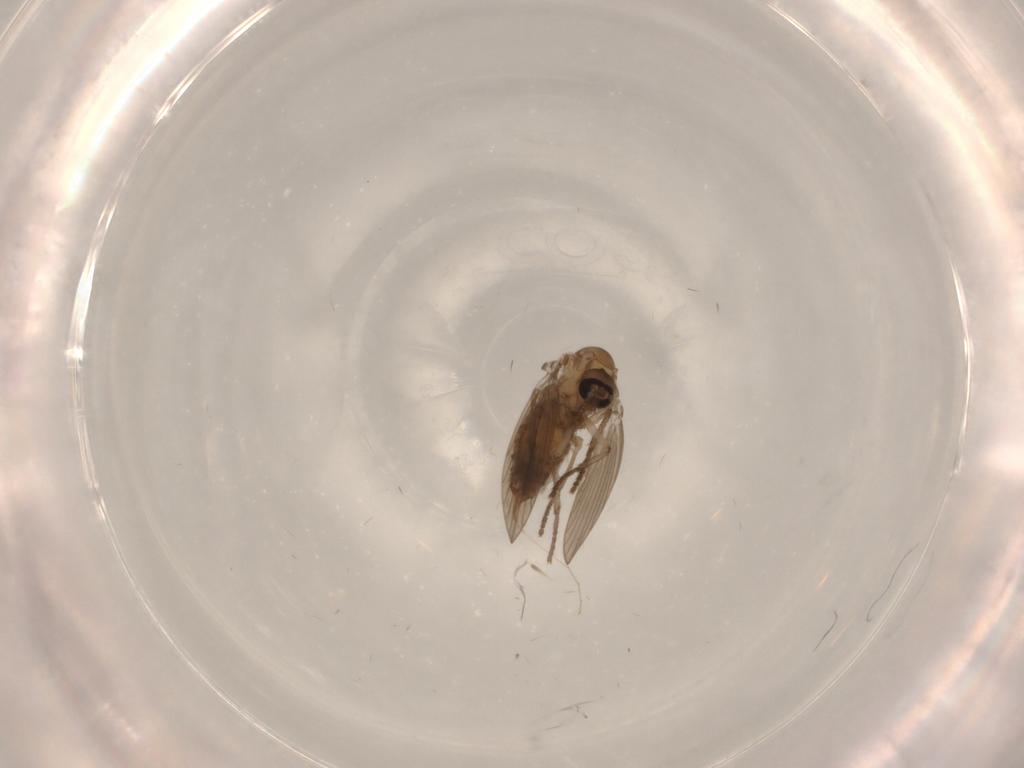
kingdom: Animalia
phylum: Arthropoda
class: Insecta
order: Diptera
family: Psychodidae
